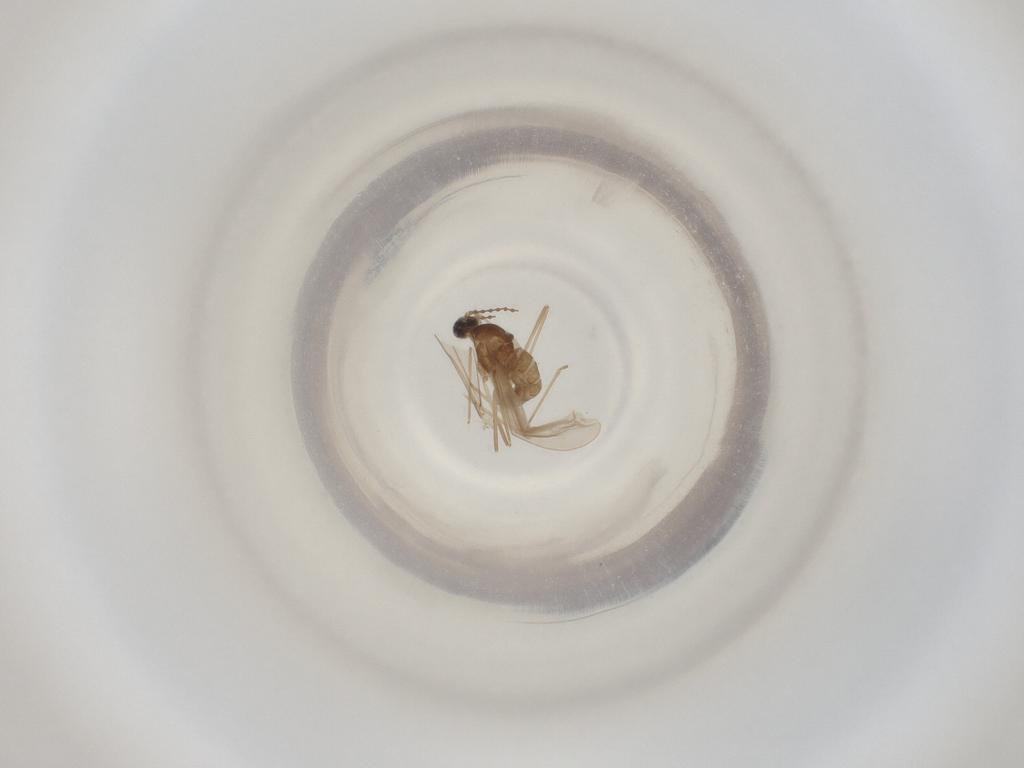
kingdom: Animalia
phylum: Arthropoda
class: Insecta
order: Diptera
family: Cecidomyiidae
